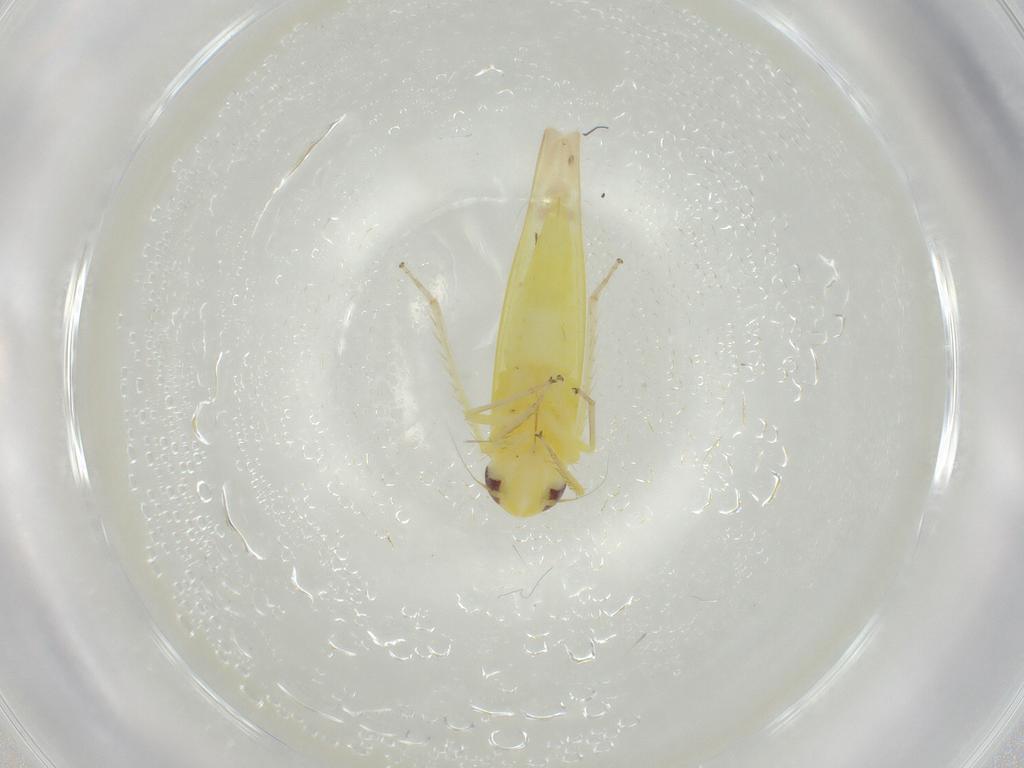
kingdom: Animalia
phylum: Arthropoda
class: Insecta
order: Hemiptera
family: Cicadellidae
